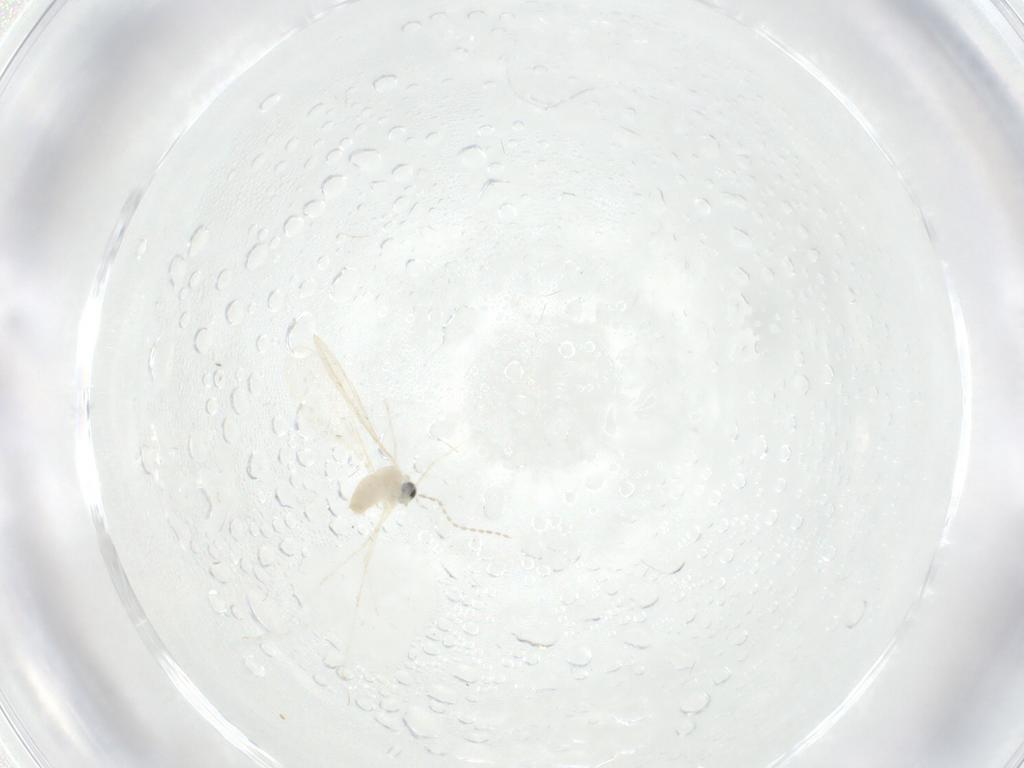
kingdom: Animalia
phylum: Arthropoda
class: Insecta
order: Diptera
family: Cecidomyiidae
